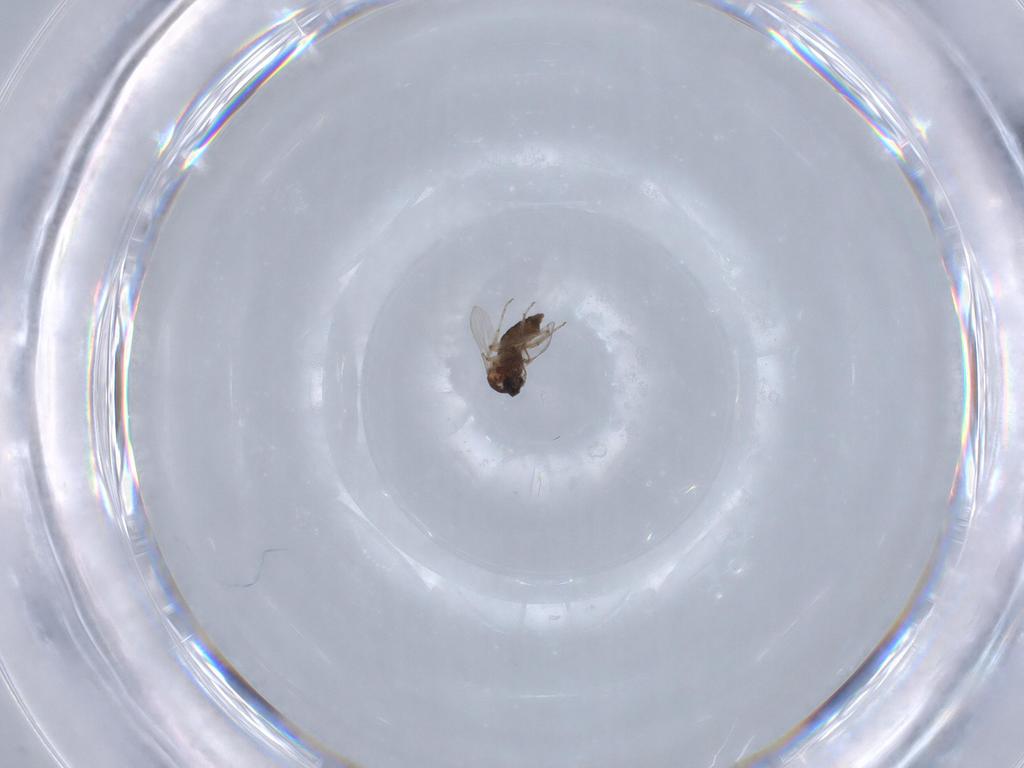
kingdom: Animalia
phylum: Arthropoda
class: Insecta
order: Diptera
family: Ceratopogonidae
